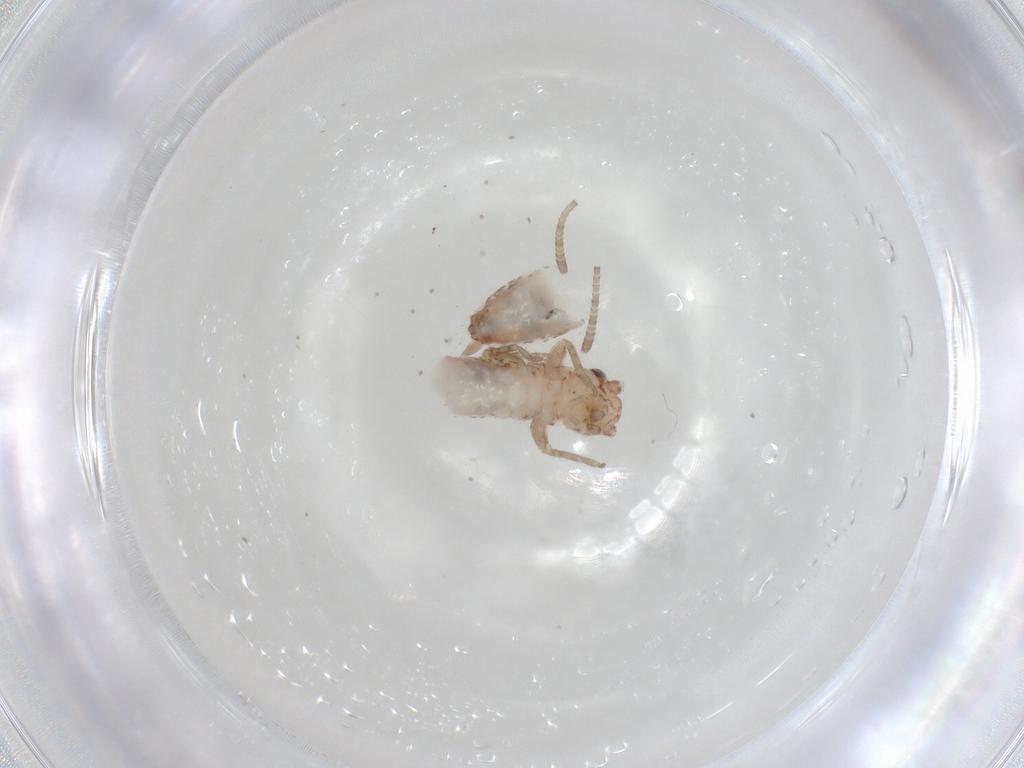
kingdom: Animalia
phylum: Arthropoda
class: Insecta
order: Orthoptera
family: Gryllidae
